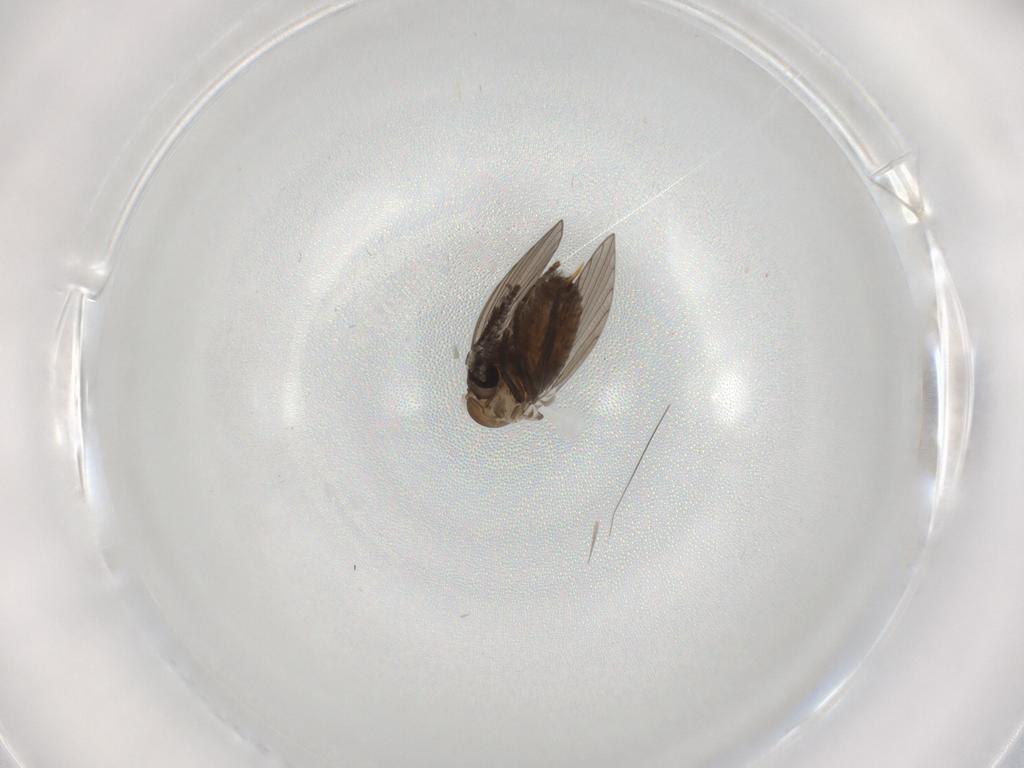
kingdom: Animalia
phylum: Arthropoda
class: Insecta
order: Diptera
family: Psychodidae
